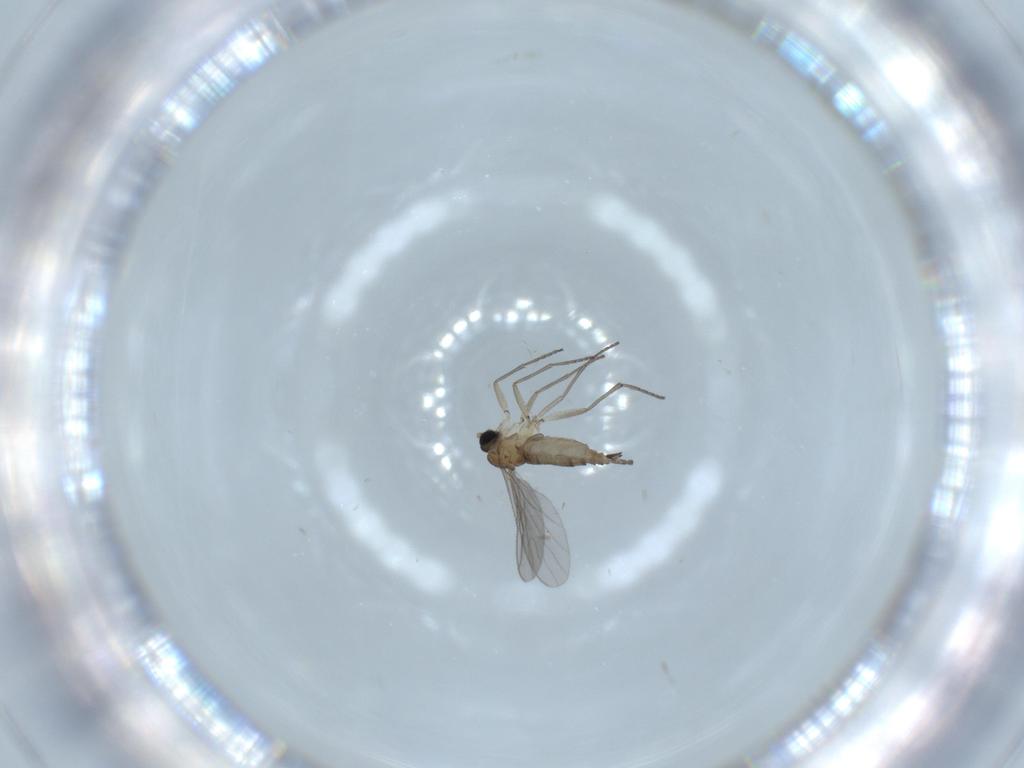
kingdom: Animalia
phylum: Arthropoda
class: Insecta
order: Diptera
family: Sciaridae
